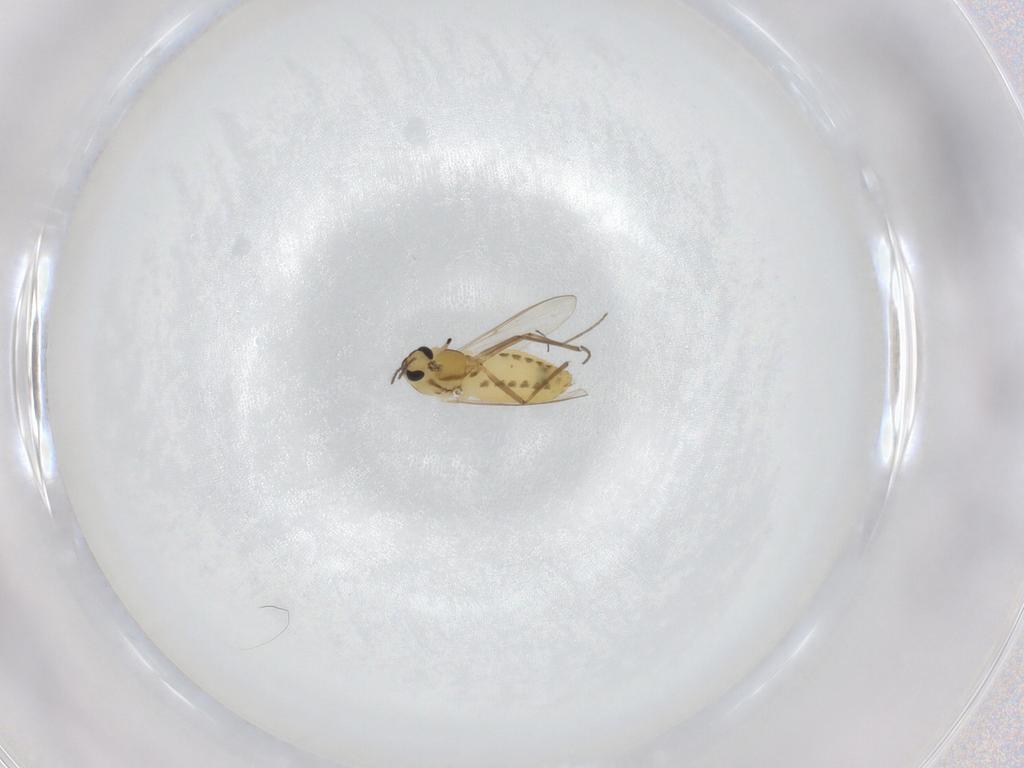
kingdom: Animalia
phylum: Arthropoda
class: Insecta
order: Diptera
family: Chironomidae
